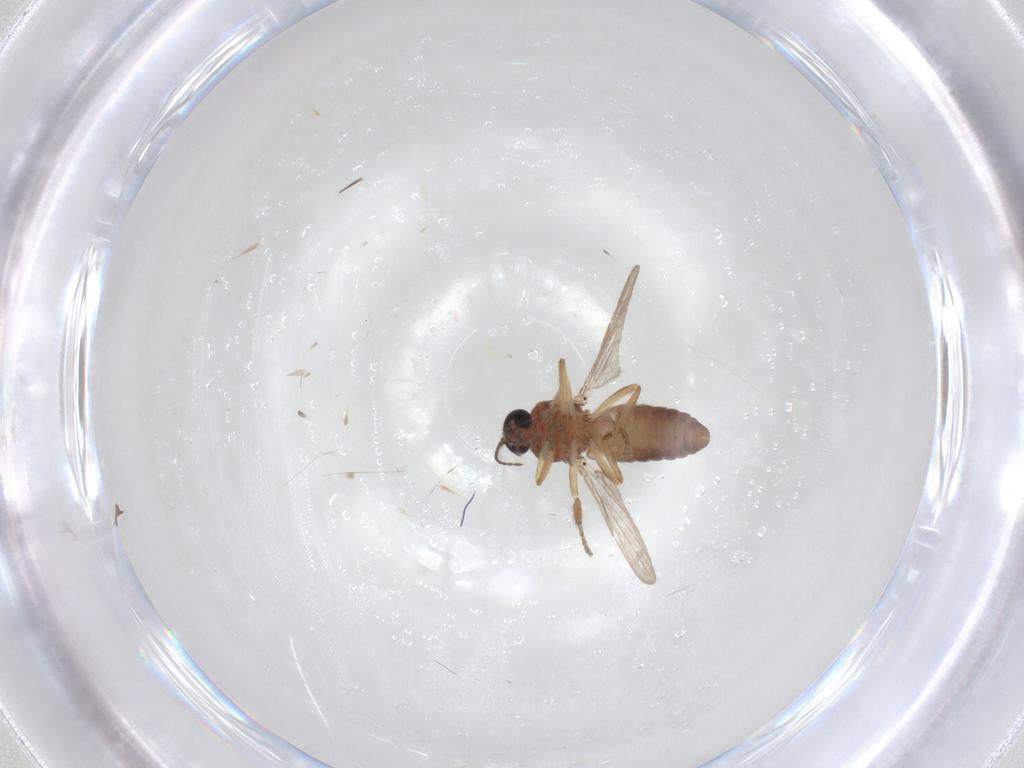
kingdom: Animalia
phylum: Arthropoda
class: Insecta
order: Diptera
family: Ceratopogonidae
